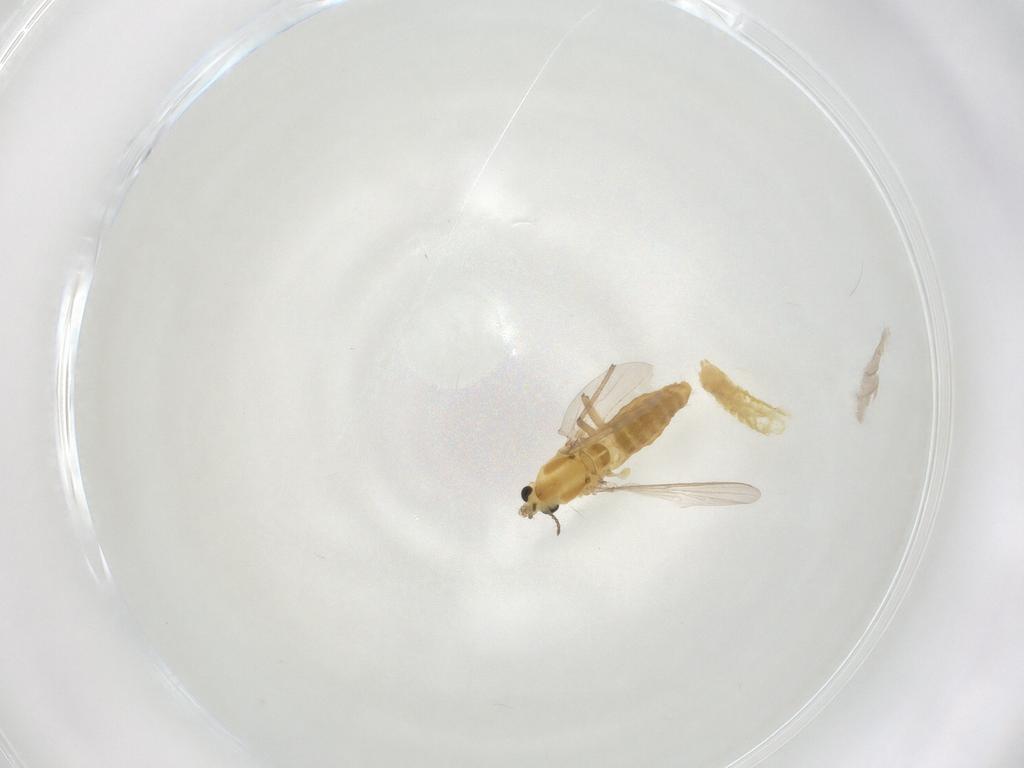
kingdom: Animalia
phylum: Arthropoda
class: Insecta
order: Diptera
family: Chironomidae
